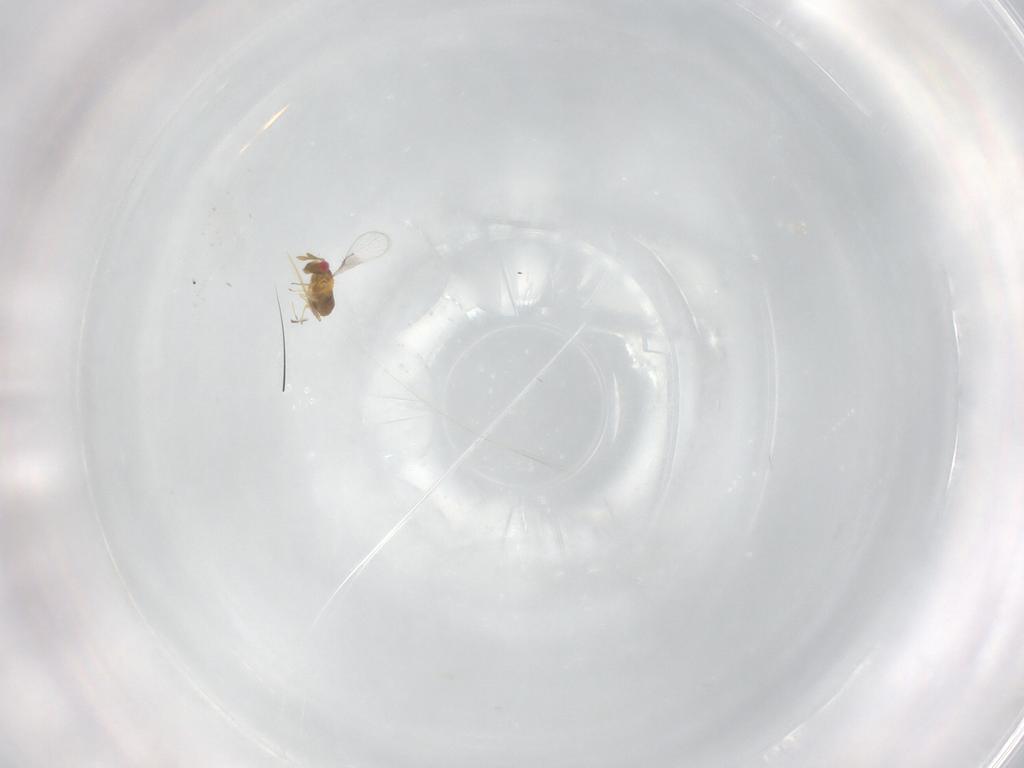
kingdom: Animalia
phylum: Arthropoda
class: Insecta
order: Hymenoptera
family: Trichogrammatidae
